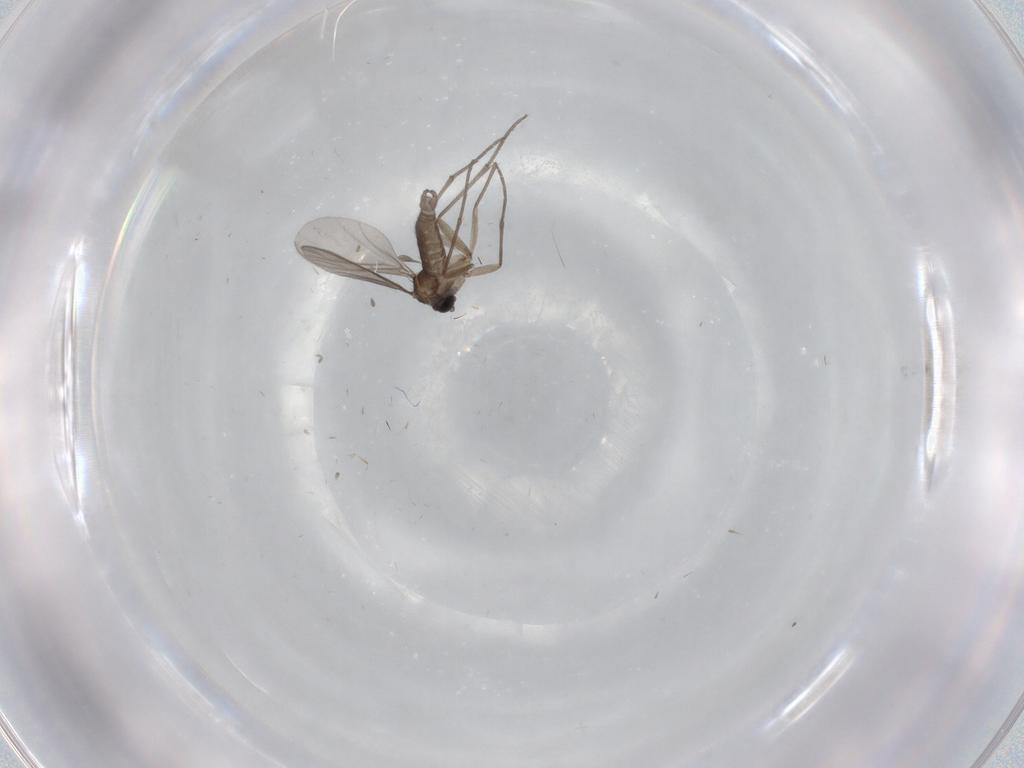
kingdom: Animalia
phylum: Arthropoda
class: Insecta
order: Diptera
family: Sciaridae
